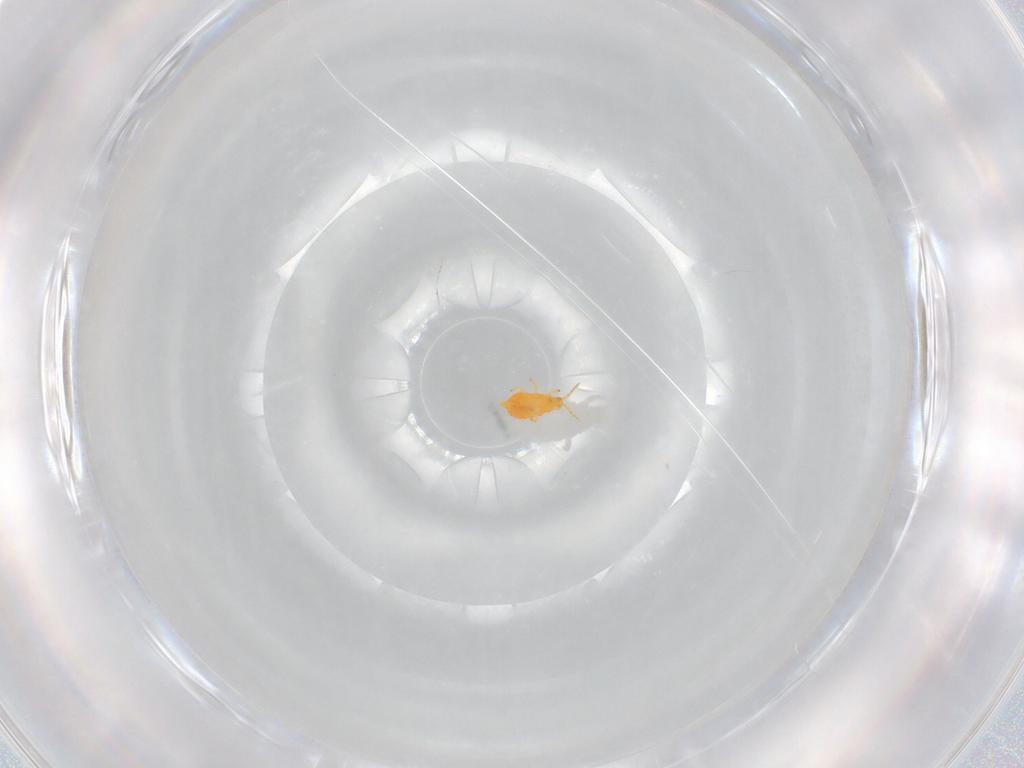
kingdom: Animalia
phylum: Arthropoda
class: Insecta
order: Thysanoptera
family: Heterothripidae
